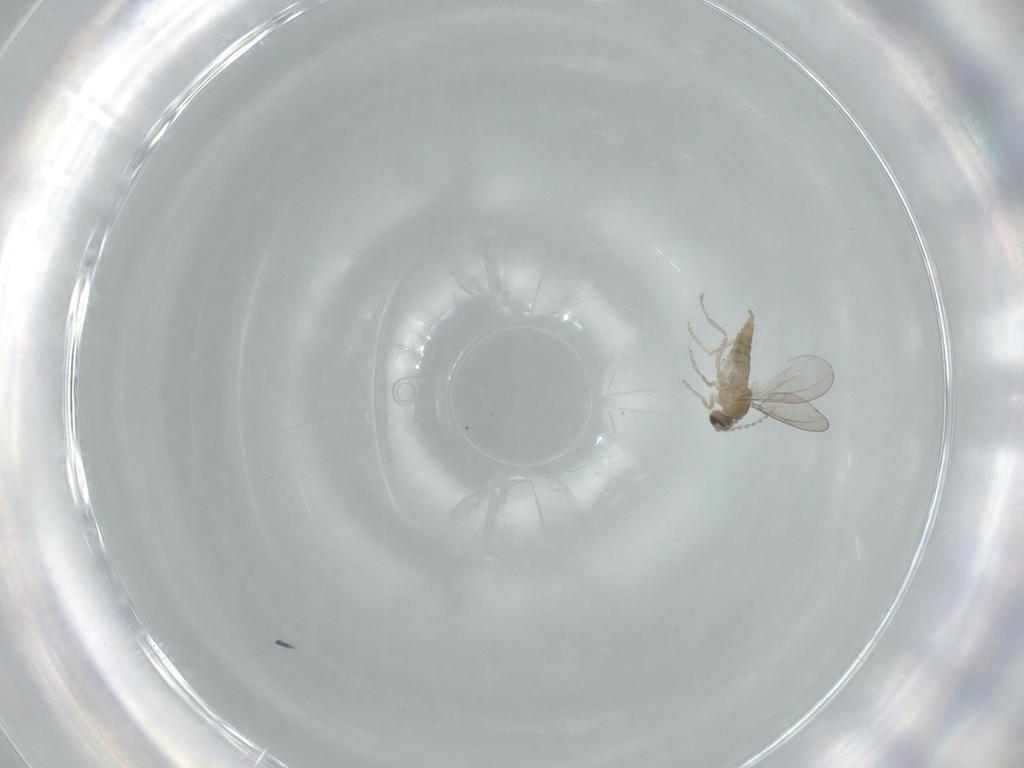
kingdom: Animalia
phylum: Arthropoda
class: Insecta
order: Diptera
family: Cecidomyiidae
